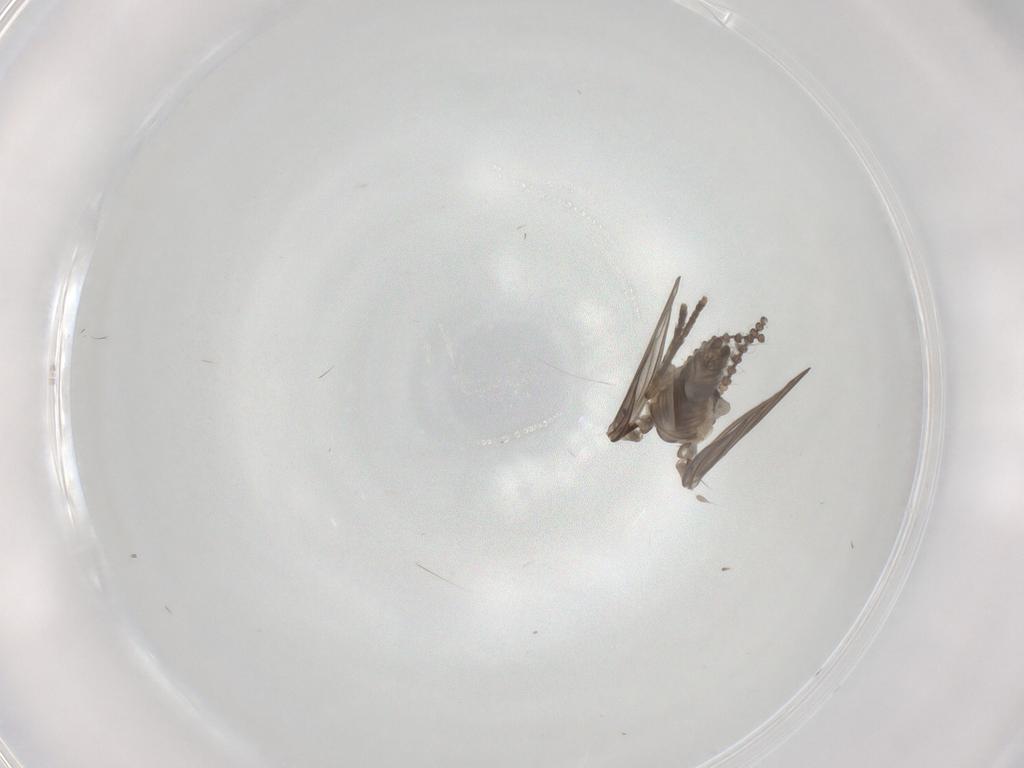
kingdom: Animalia
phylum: Arthropoda
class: Insecta
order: Diptera
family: Psychodidae
